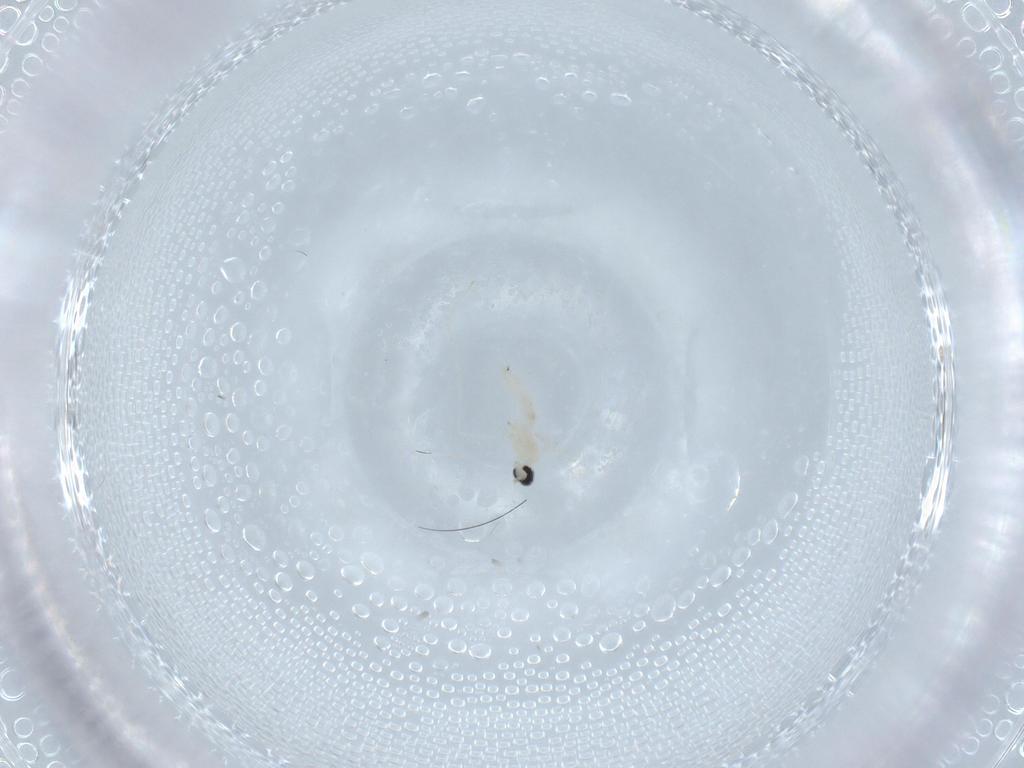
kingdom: Animalia
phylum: Arthropoda
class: Insecta
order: Diptera
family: Cecidomyiidae
